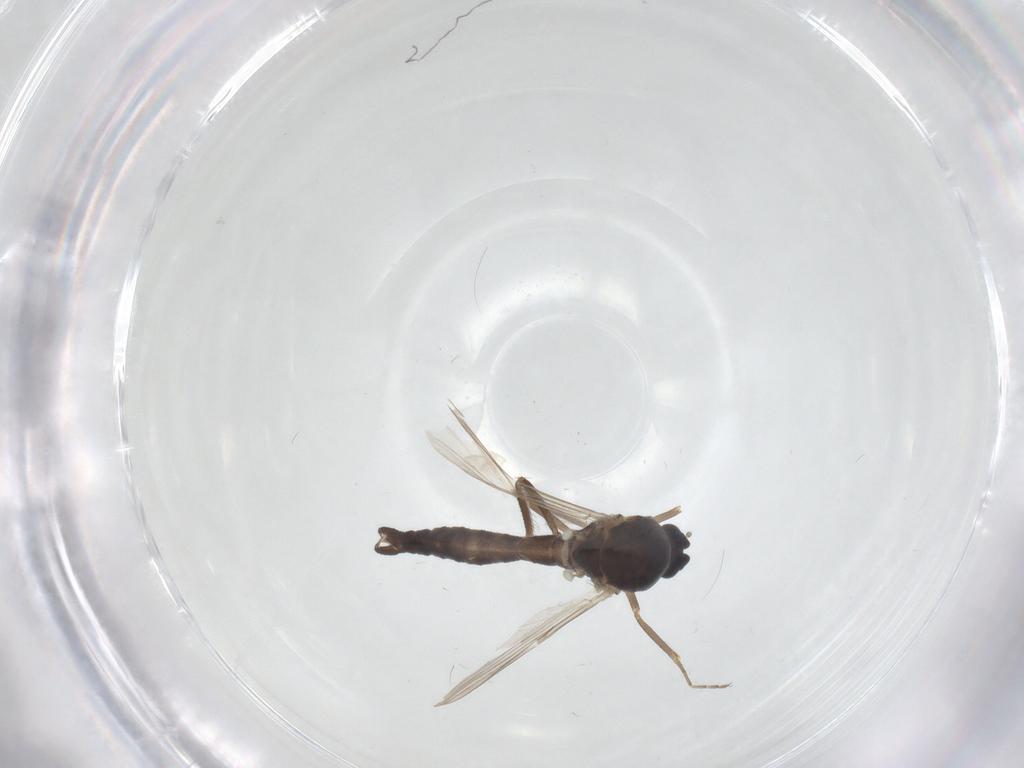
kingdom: Animalia
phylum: Arthropoda
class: Insecta
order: Diptera
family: Ceratopogonidae
